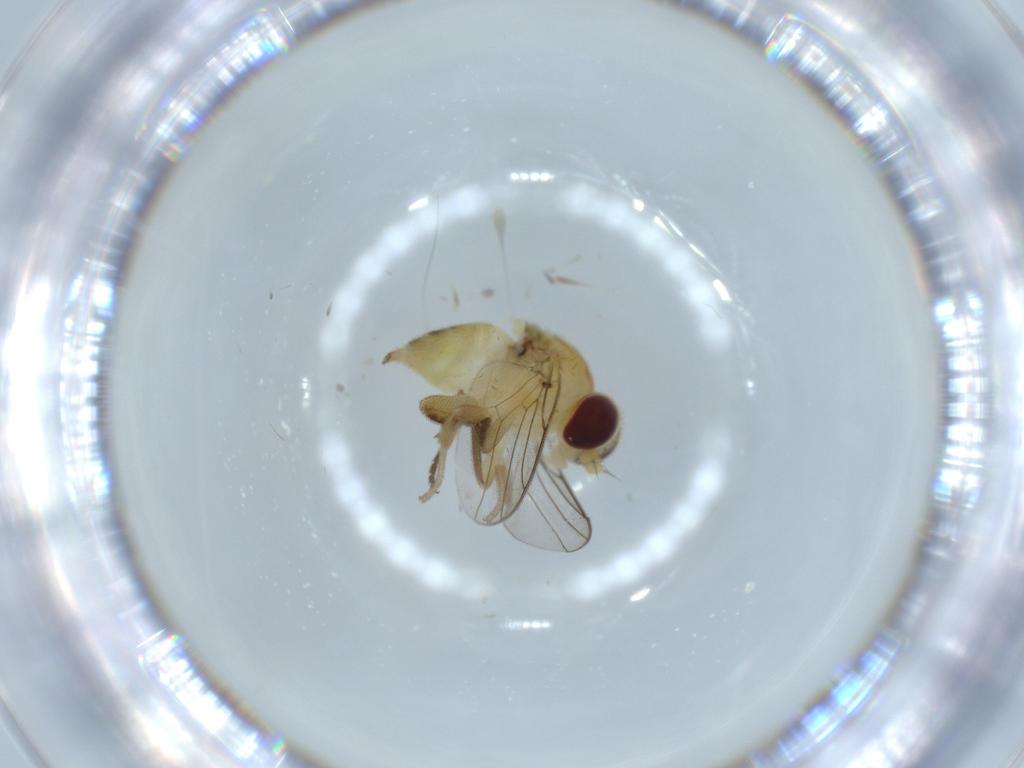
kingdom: Animalia
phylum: Arthropoda
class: Insecta
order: Diptera
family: Chloropidae
